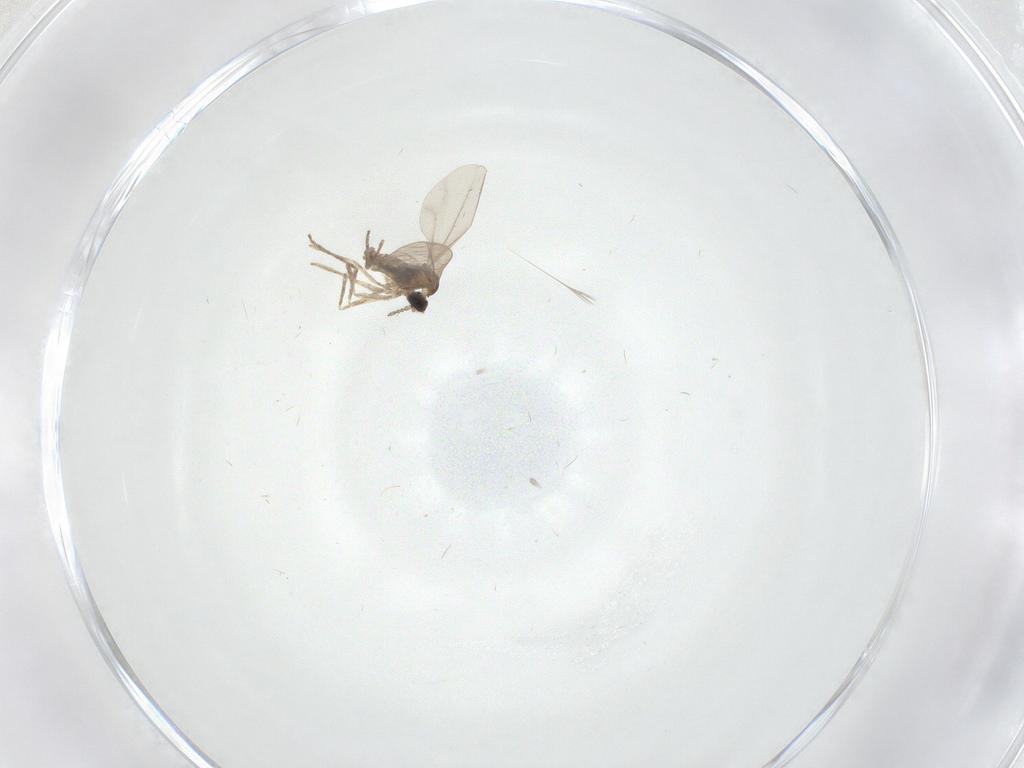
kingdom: Animalia
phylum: Arthropoda
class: Insecta
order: Diptera
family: Cecidomyiidae
